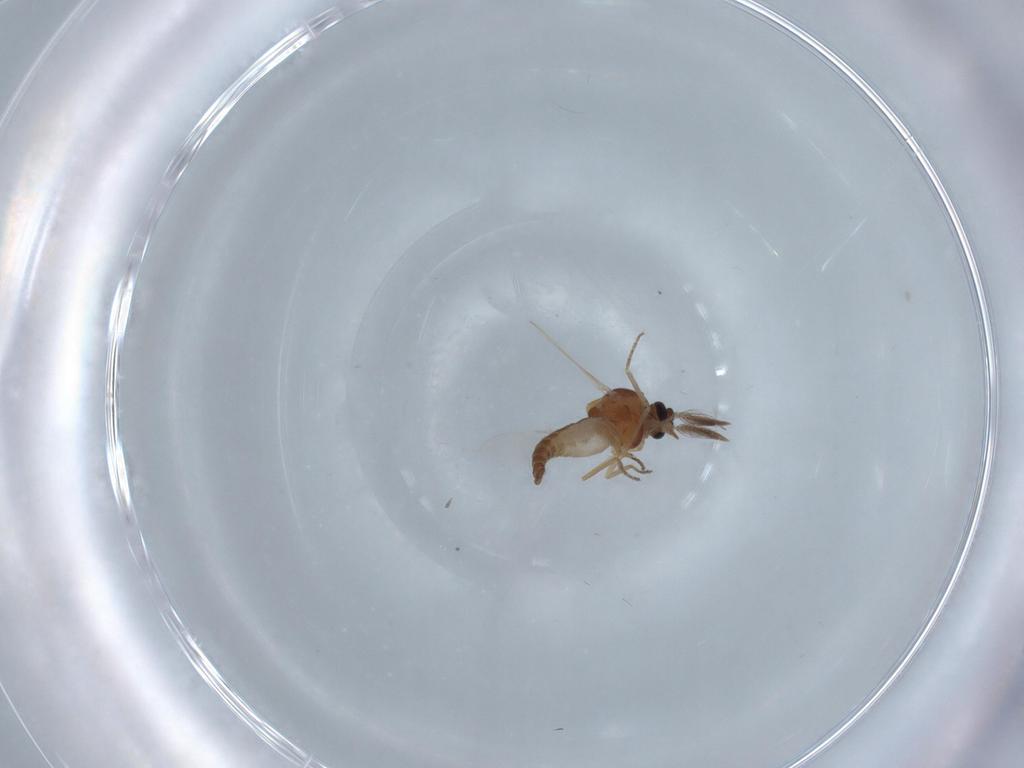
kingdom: Animalia
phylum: Arthropoda
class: Insecta
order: Diptera
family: Ceratopogonidae
